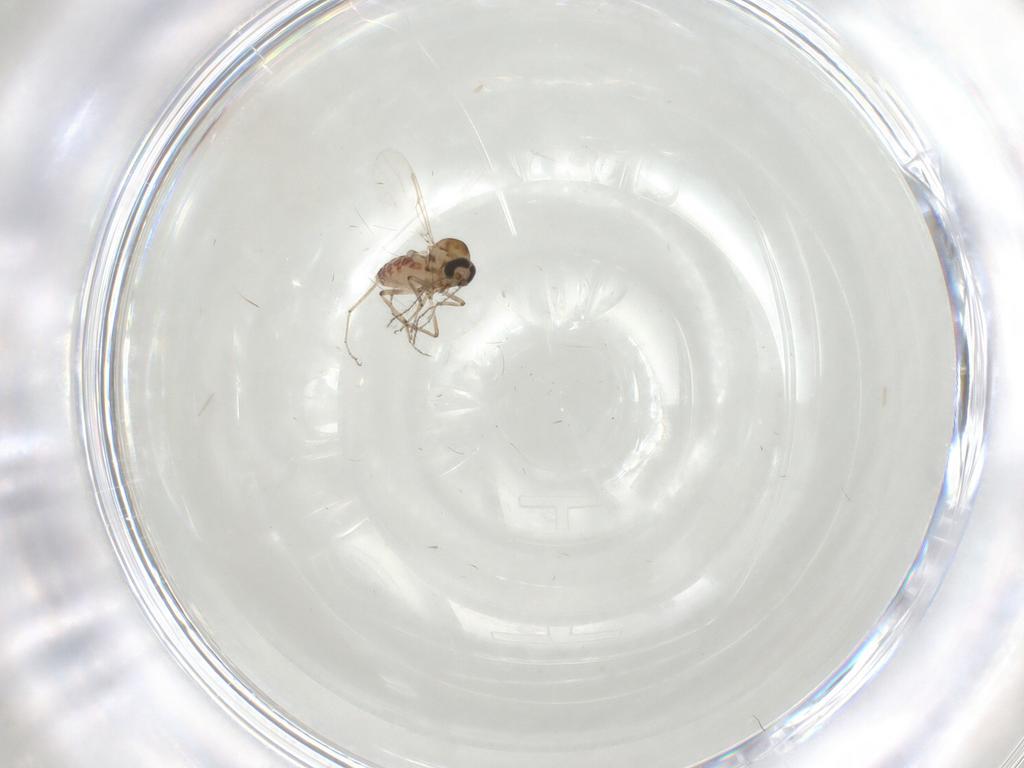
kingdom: Animalia
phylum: Arthropoda
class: Insecta
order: Diptera
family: Ceratopogonidae
